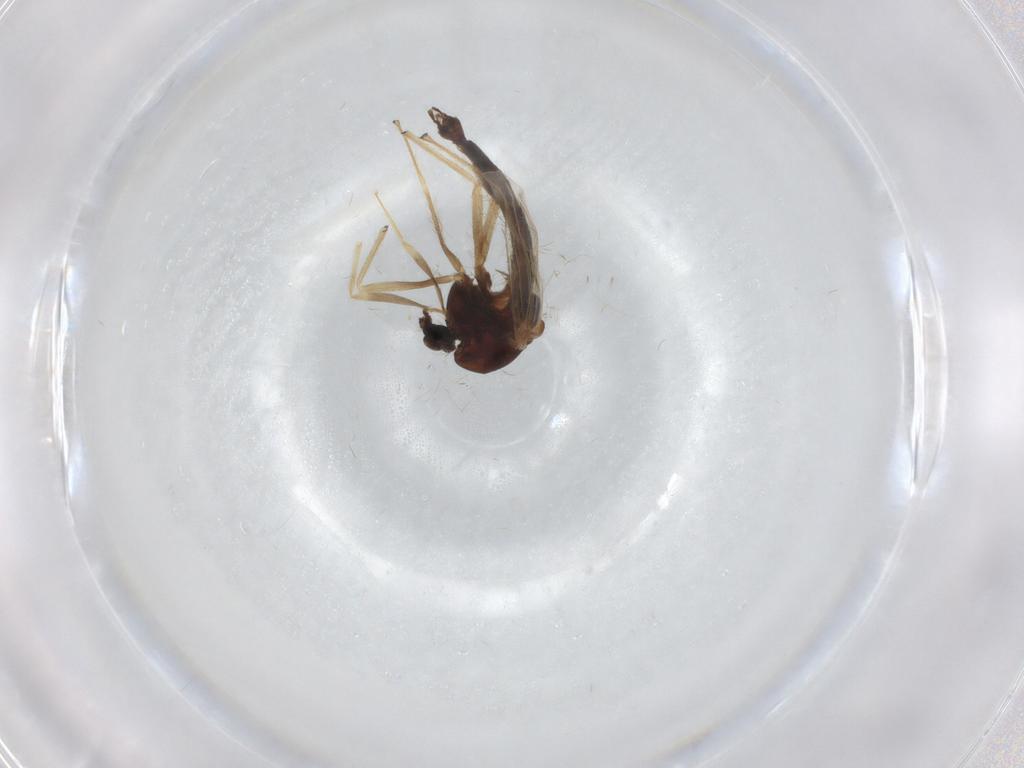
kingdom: Animalia
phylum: Arthropoda
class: Insecta
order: Diptera
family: Chironomidae
